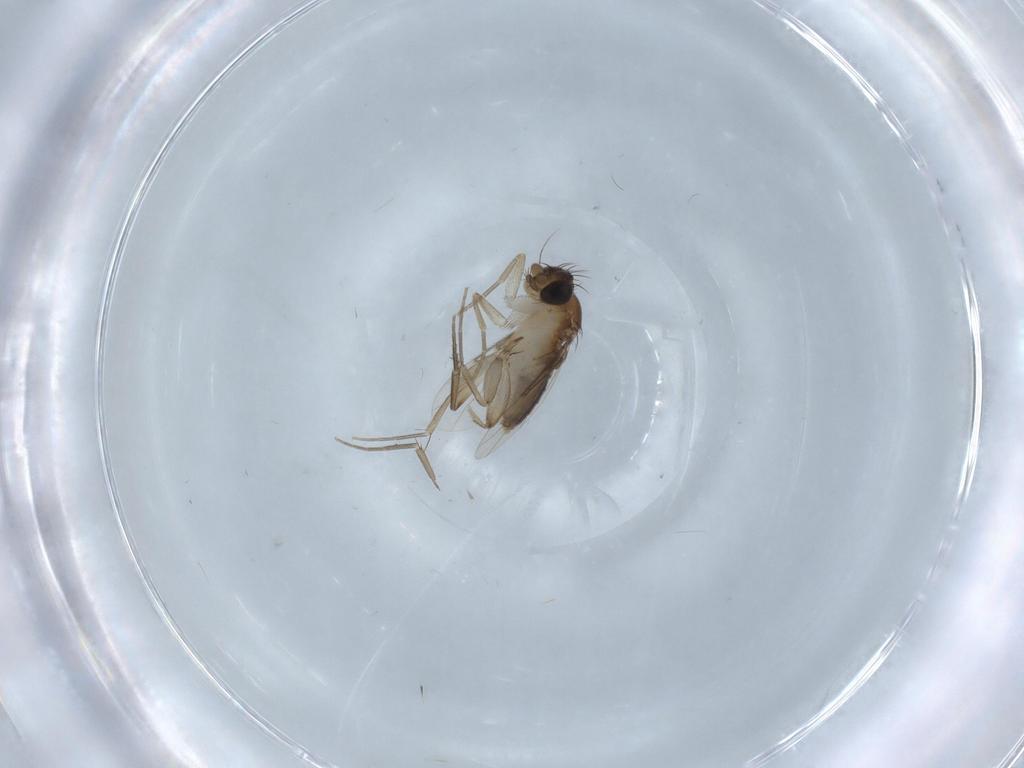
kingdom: Animalia
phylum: Arthropoda
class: Insecta
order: Diptera
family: Phoridae
